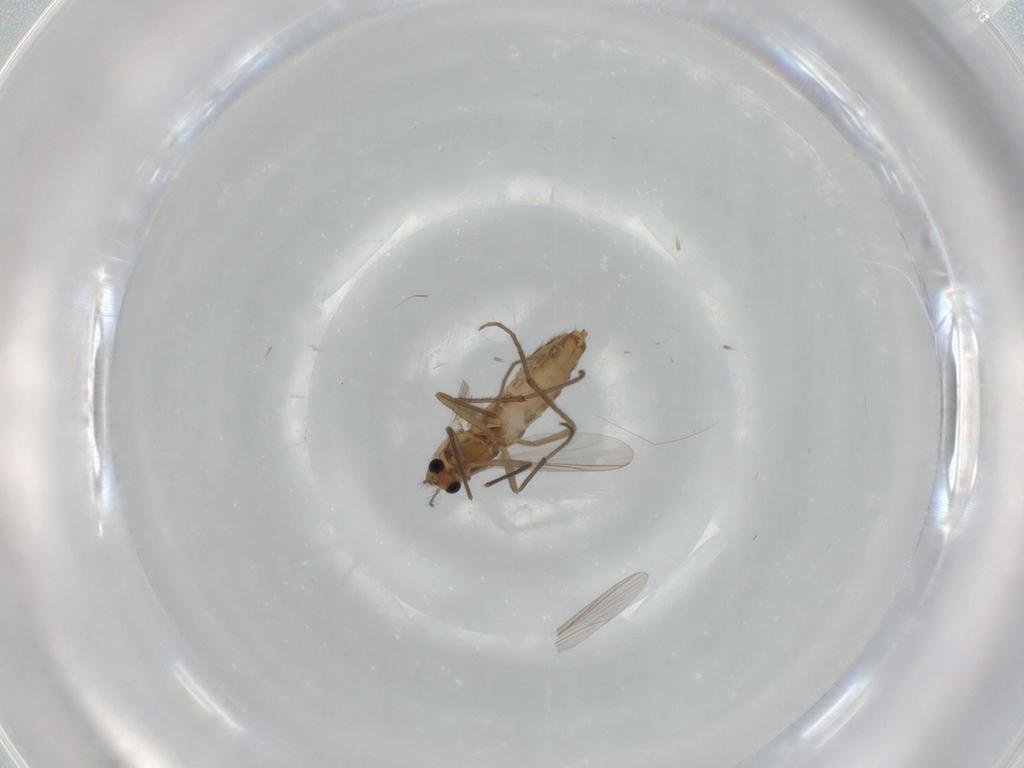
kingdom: Animalia
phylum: Arthropoda
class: Insecta
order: Diptera
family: Chironomidae
